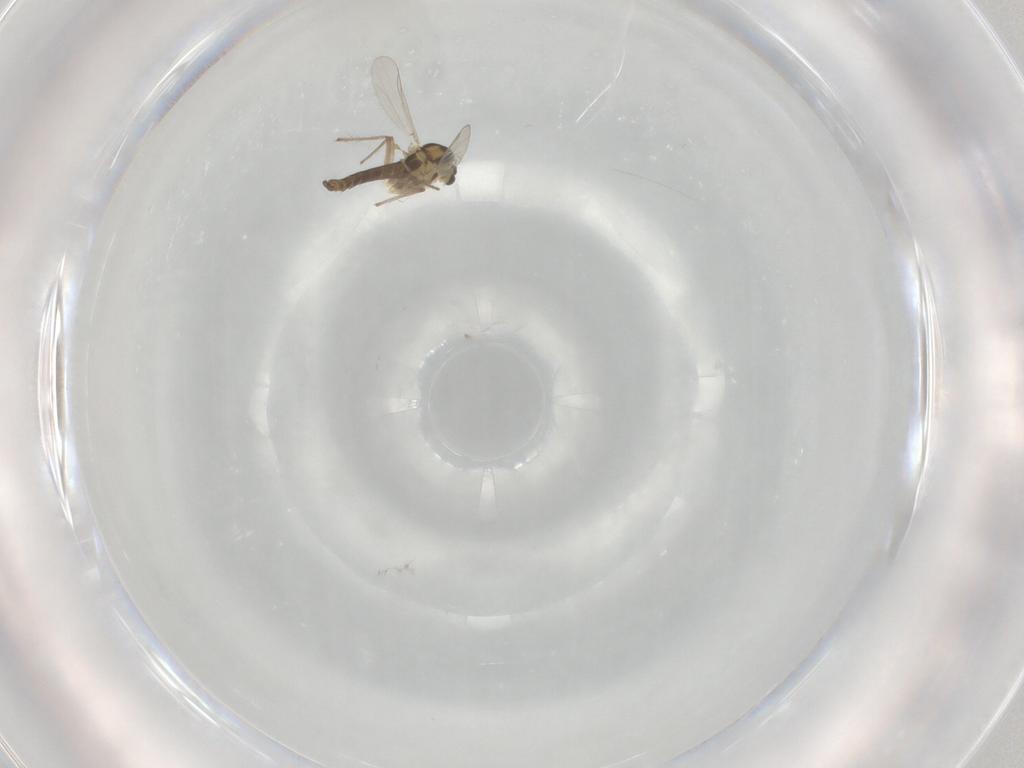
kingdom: Animalia
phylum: Arthropoda
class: Insecta
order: Diptera
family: Chironomidae
